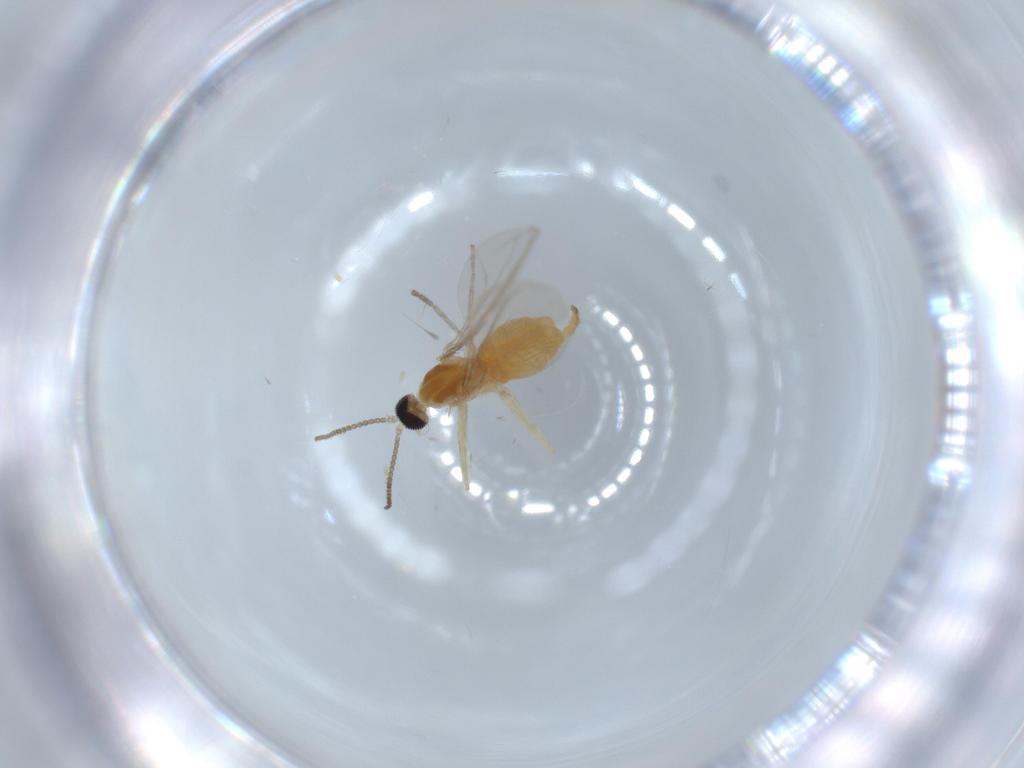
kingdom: Animalia
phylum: Arthropoda
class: Insecta
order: Diptera
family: Cecidomyiidae
